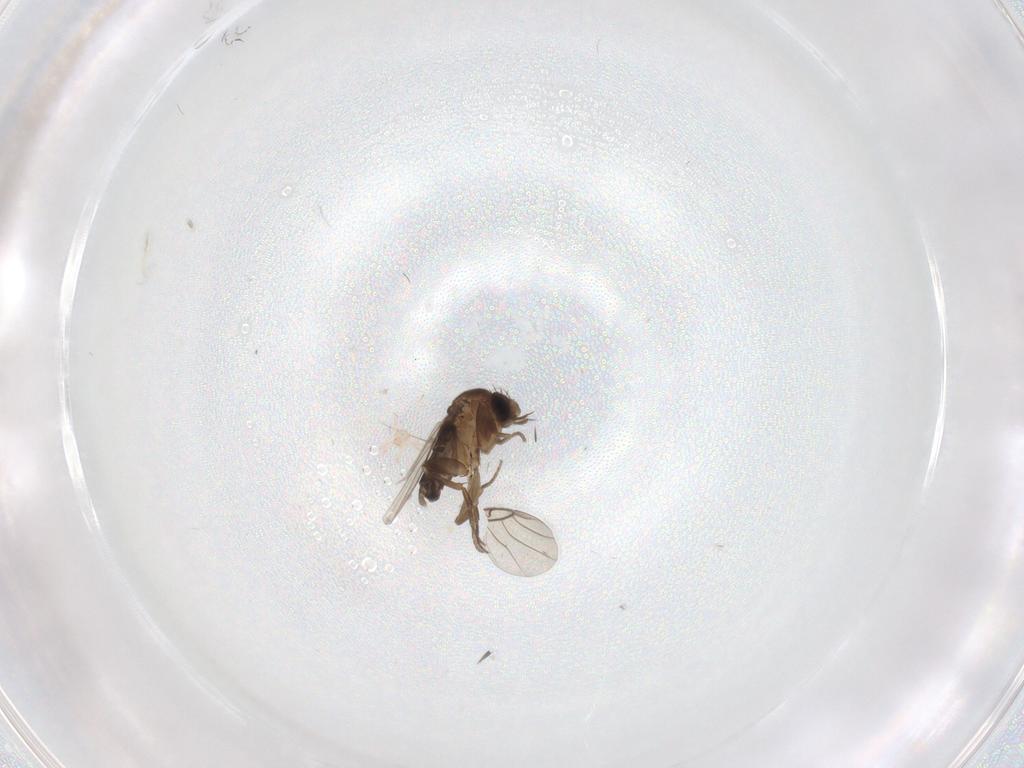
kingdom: Animalia
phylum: Arthropoda
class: Insecta
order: Diptera
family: Phoridae
